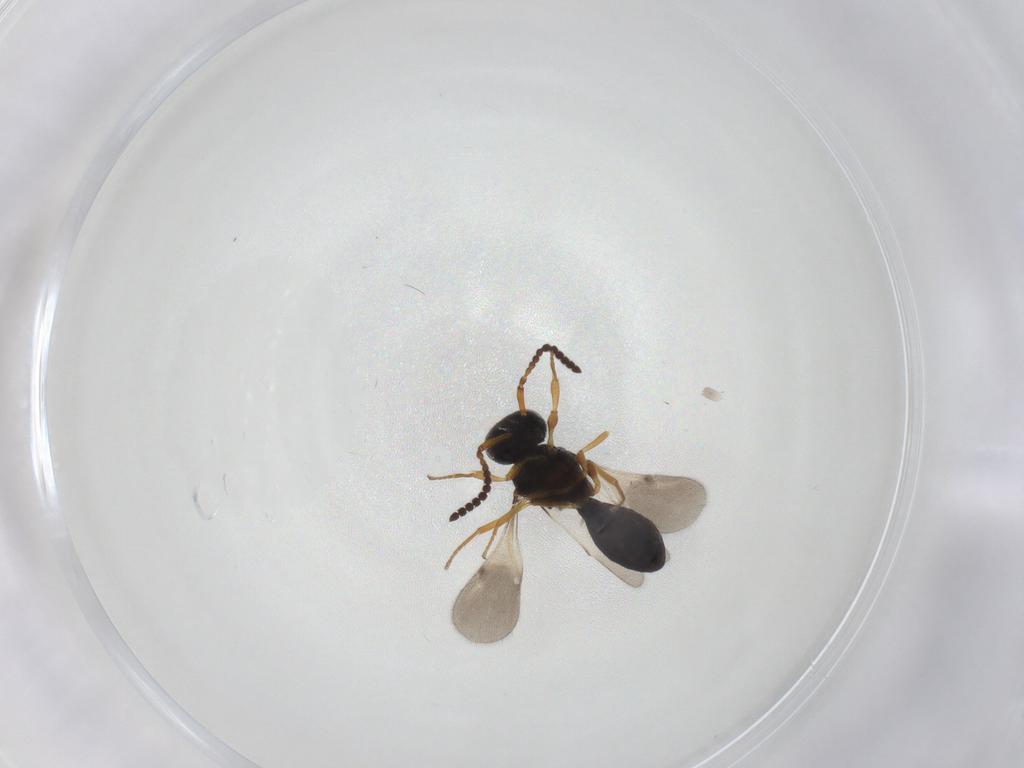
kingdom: Animalia
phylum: Arthropoda
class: Insecta
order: Hymenoptera
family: Scelionidae
